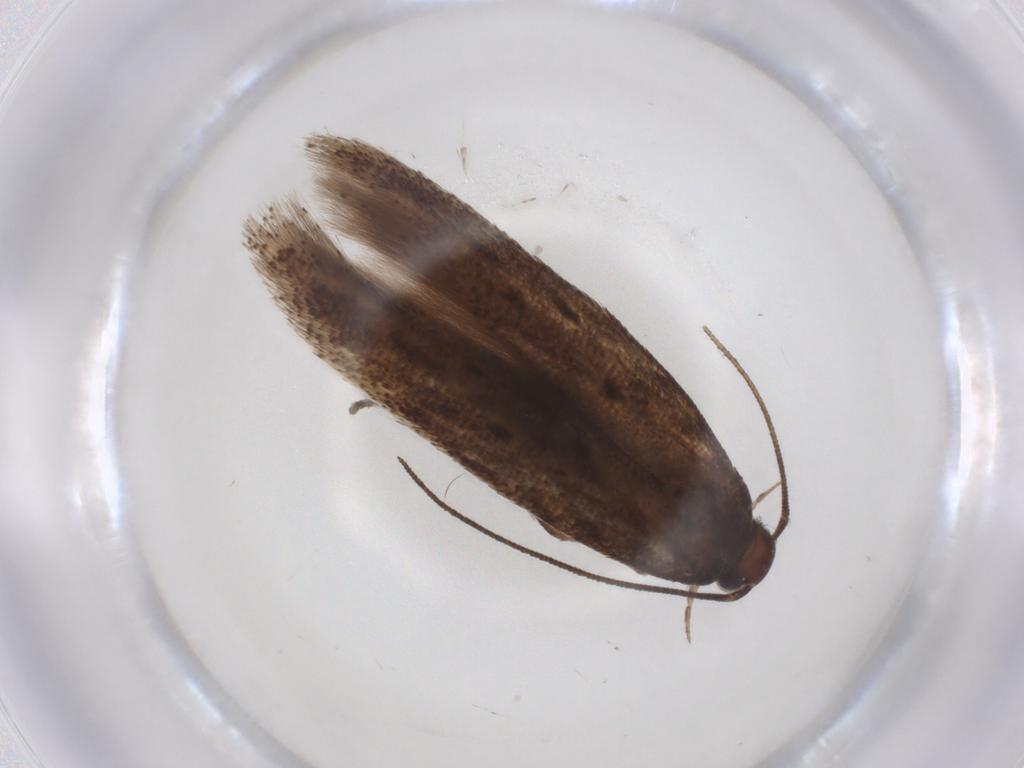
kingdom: Animalia
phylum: Arthropoda
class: Insecta
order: Lepidoptera
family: Gelechiidae
